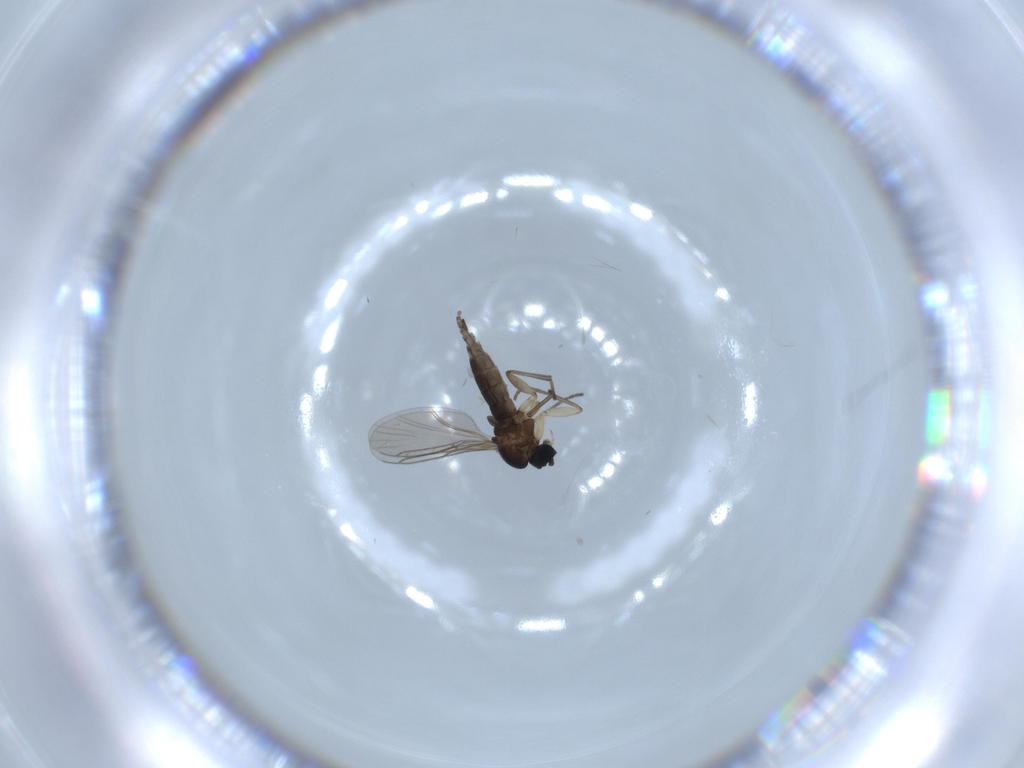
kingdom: Animalia
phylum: Arthropoda
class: Insecta
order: Diptera
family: Sciaridae
